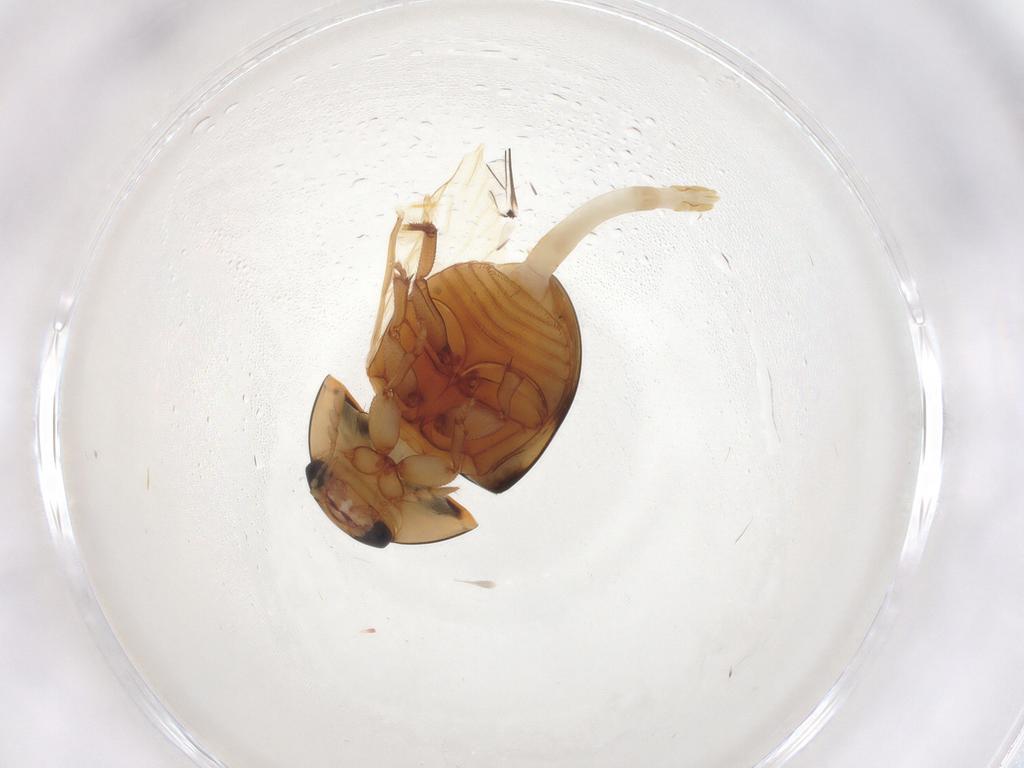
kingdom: Animalia
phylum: Arthropoda
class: Insecta
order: Coleoptera
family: Phalacridae
